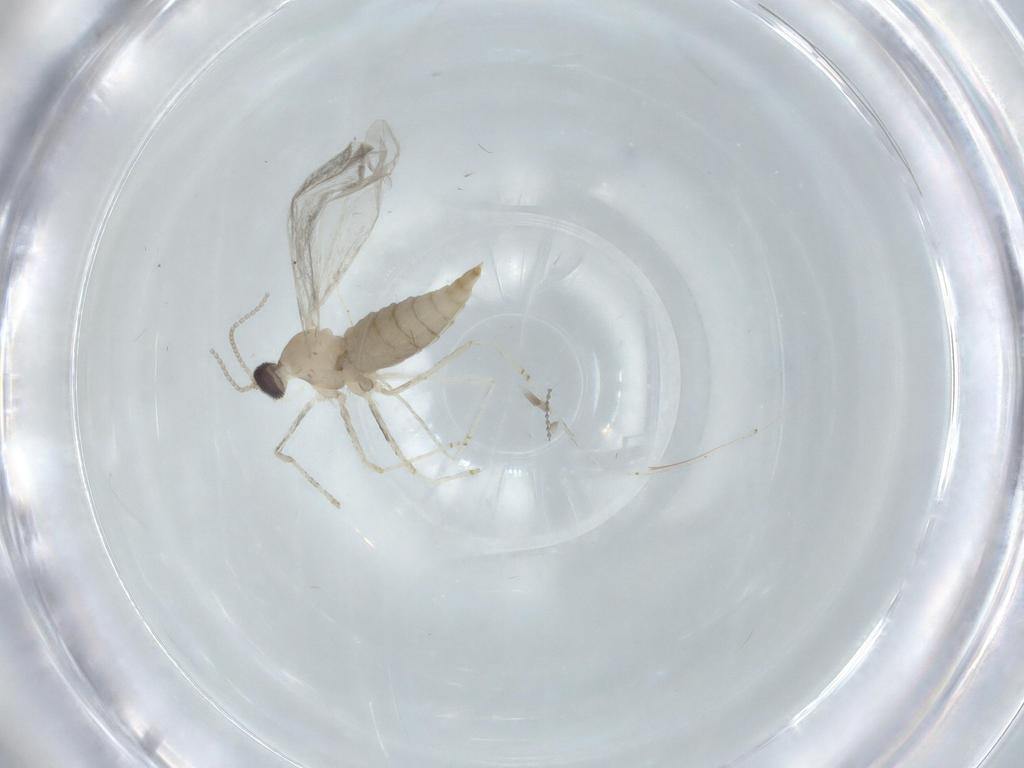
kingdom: Animalia
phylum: Arthropoda
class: Insecta
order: Diptera
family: Cecidomyiidae
